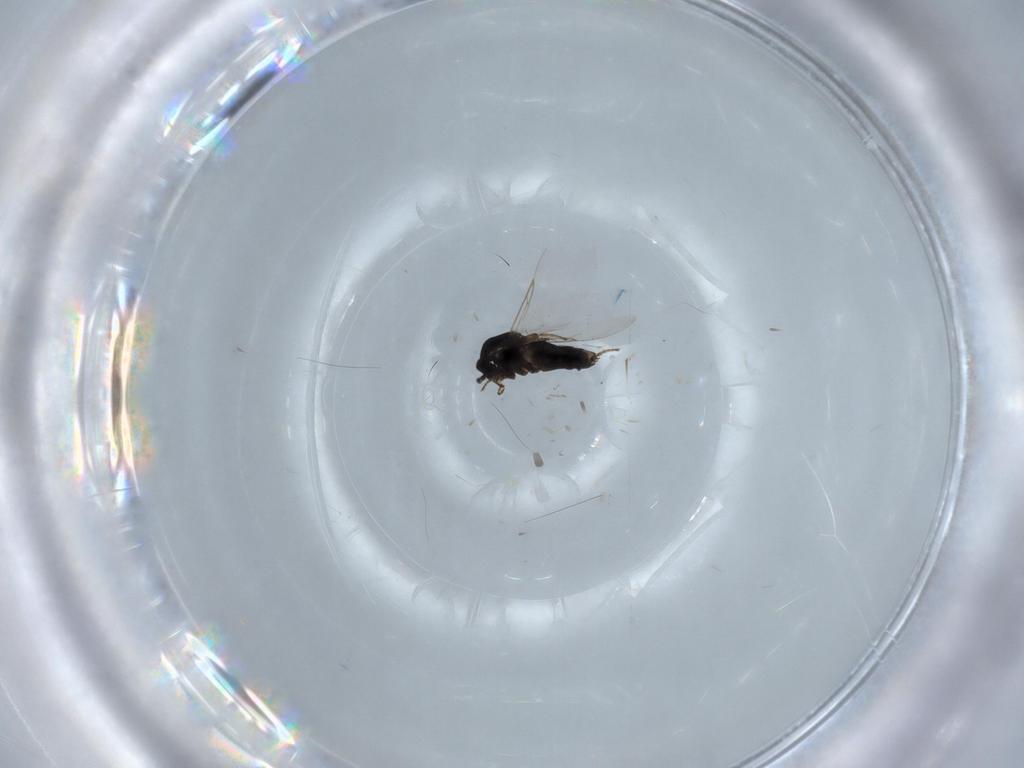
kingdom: Animalia
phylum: Arthropoda
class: Insecta
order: Diptera
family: Scatopsidae
